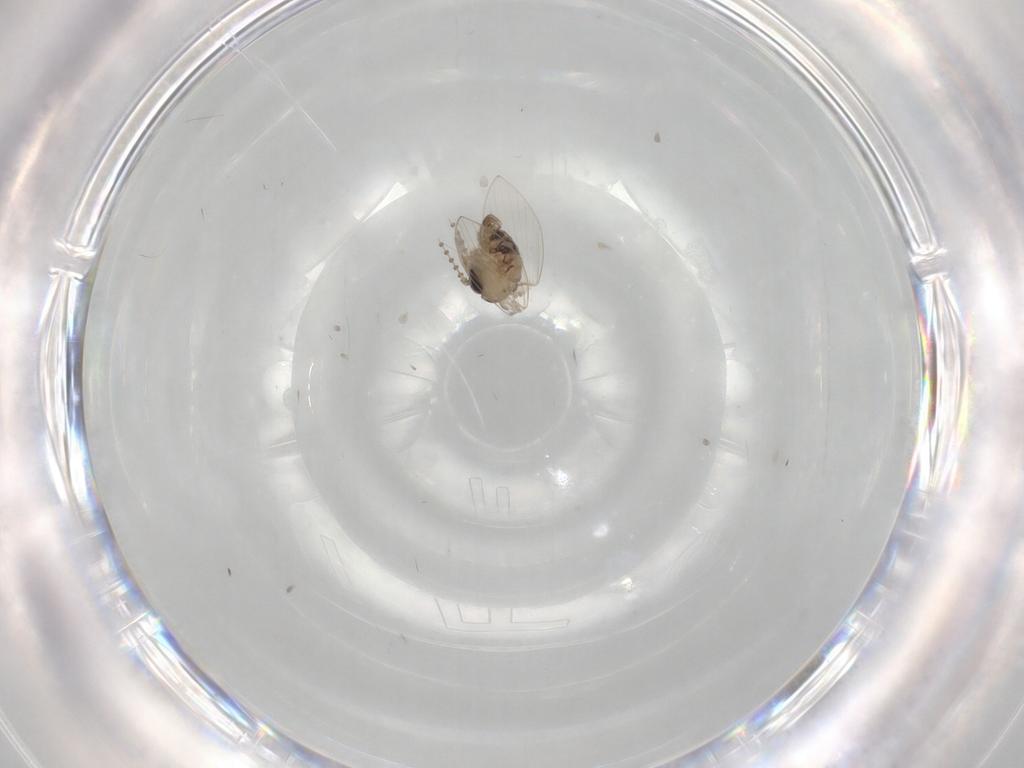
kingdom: Animalia
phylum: Arthropoda
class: Insecta
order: Diptera
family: Psychodidae
